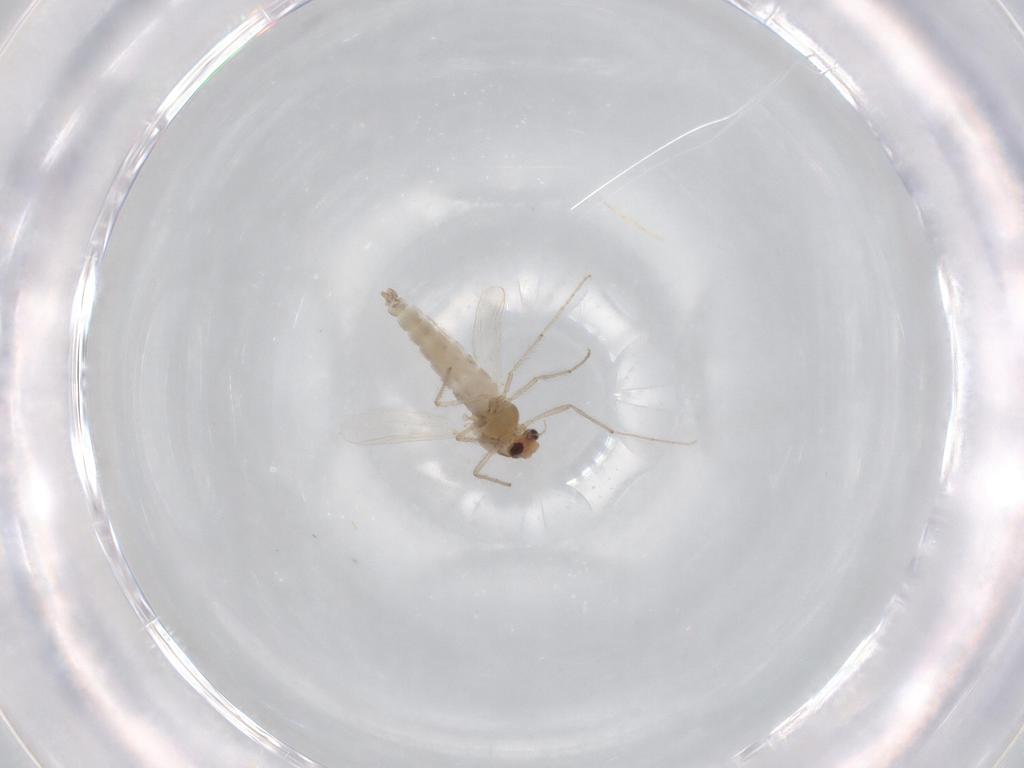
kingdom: Animalia
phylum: Arthropoda
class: Insecta
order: Diptera
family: Chironomidae
